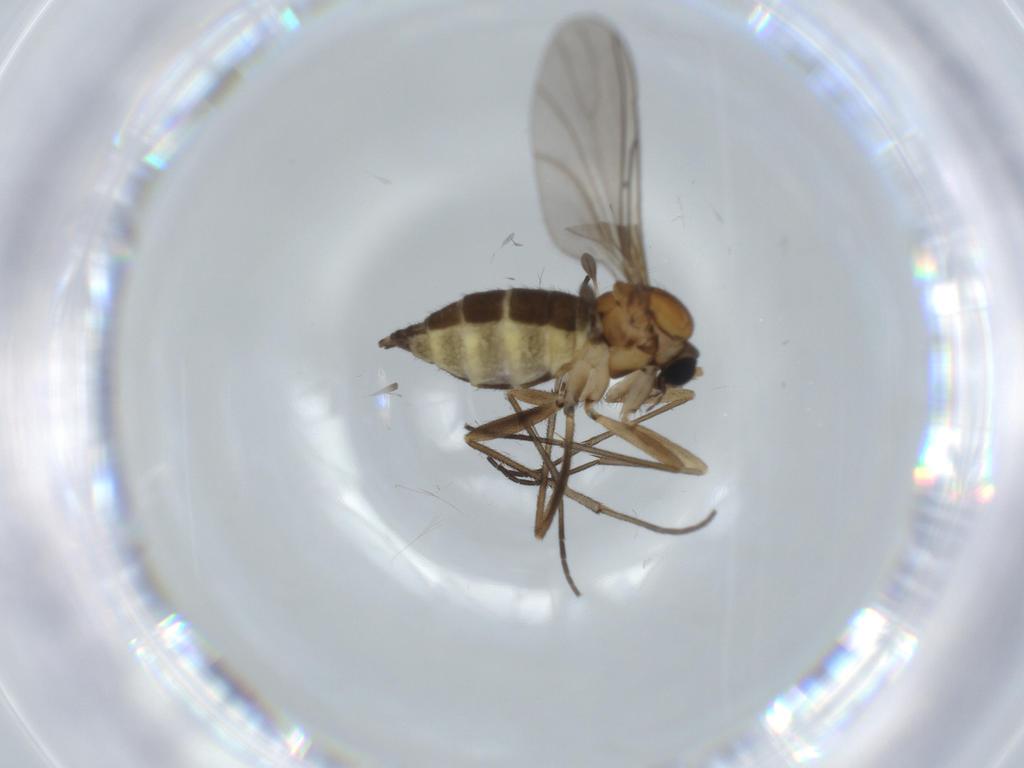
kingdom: Animalia
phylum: Arthropoda
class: Insecta
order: Diptera
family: Sciaridae
